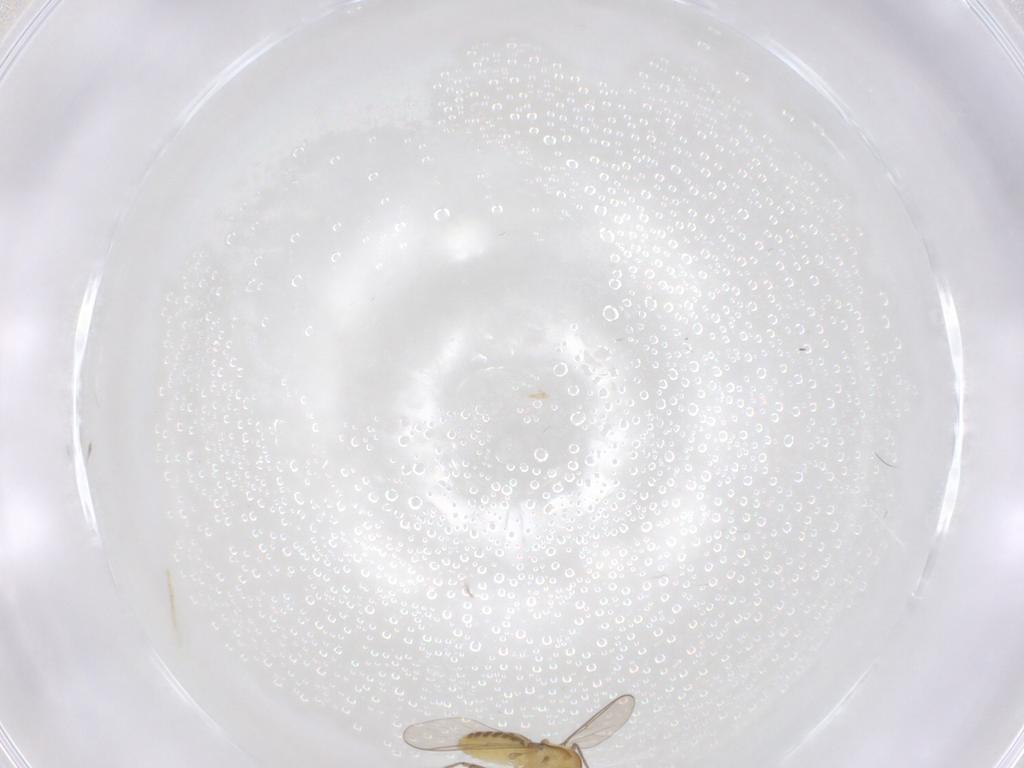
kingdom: Animalia
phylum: Arthropoda
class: Insecta
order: Diptera
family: Chironomidae
